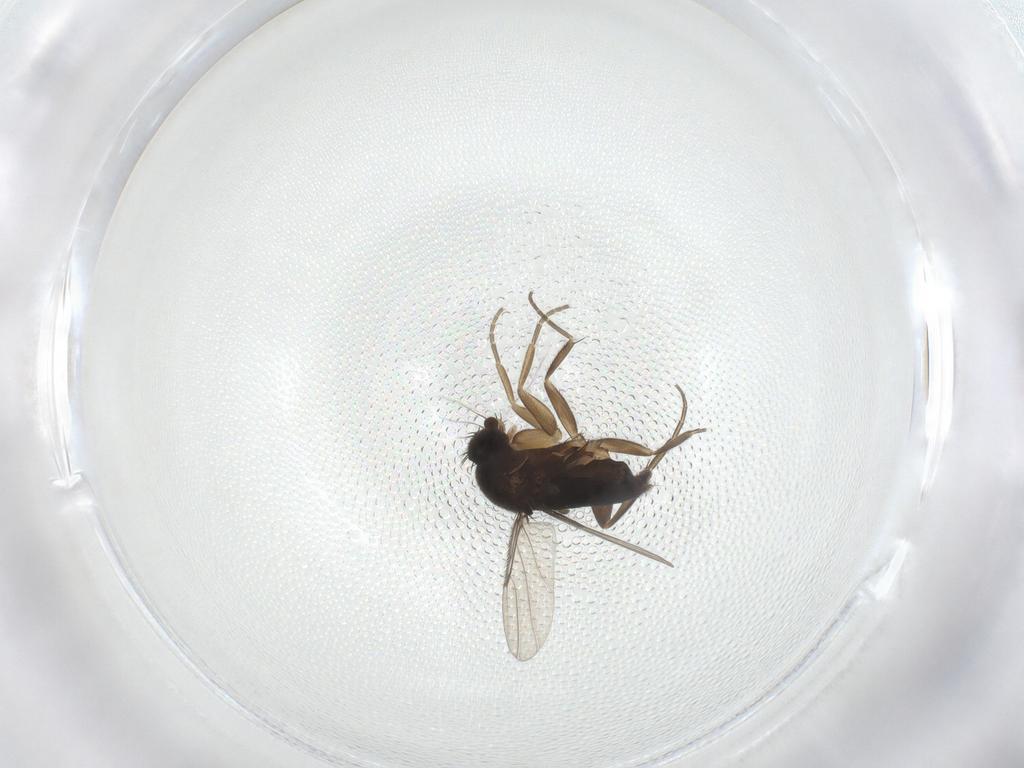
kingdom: Animalia
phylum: Arthropoda
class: Insecta
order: Diptera
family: Phoridae
